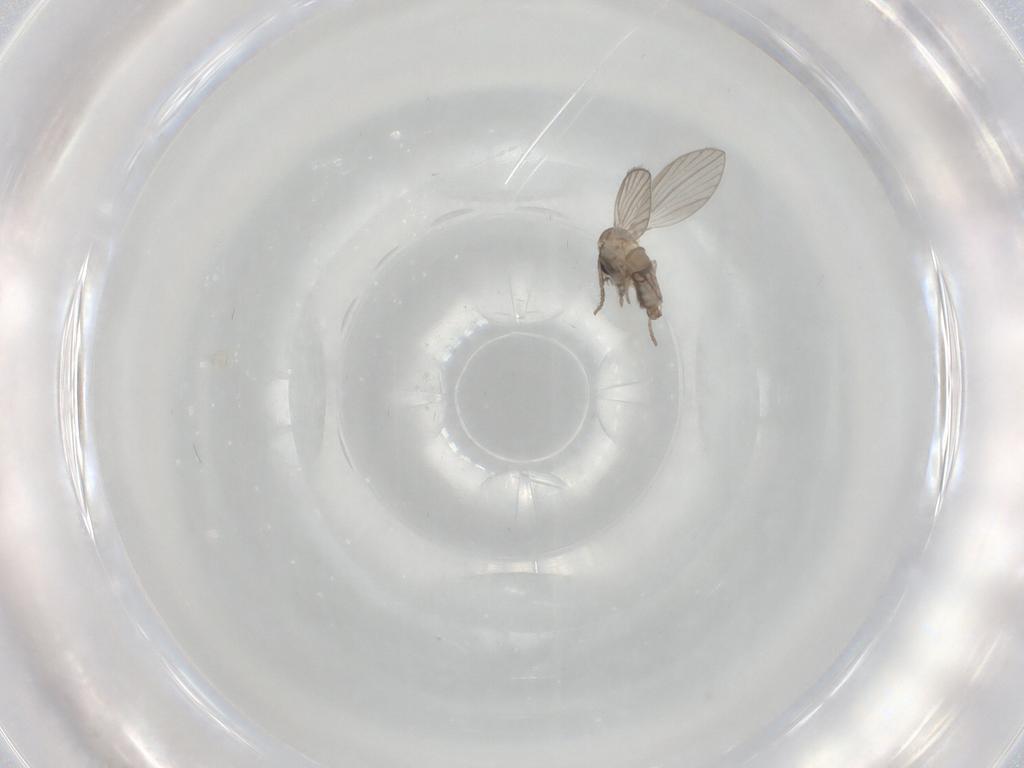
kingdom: Animalia
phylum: Arthropoda
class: Insecta
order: Diptera
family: Psychodidae
